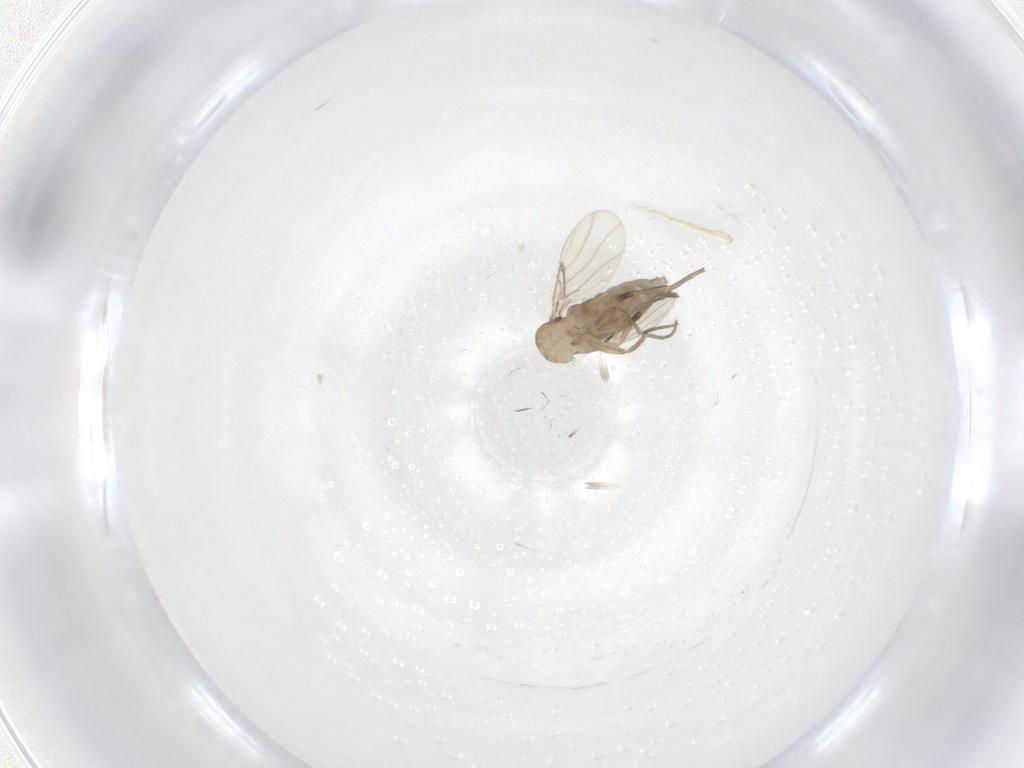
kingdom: Animalia
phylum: Arthropoda
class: Insecta
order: Diptera
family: Phoridae
